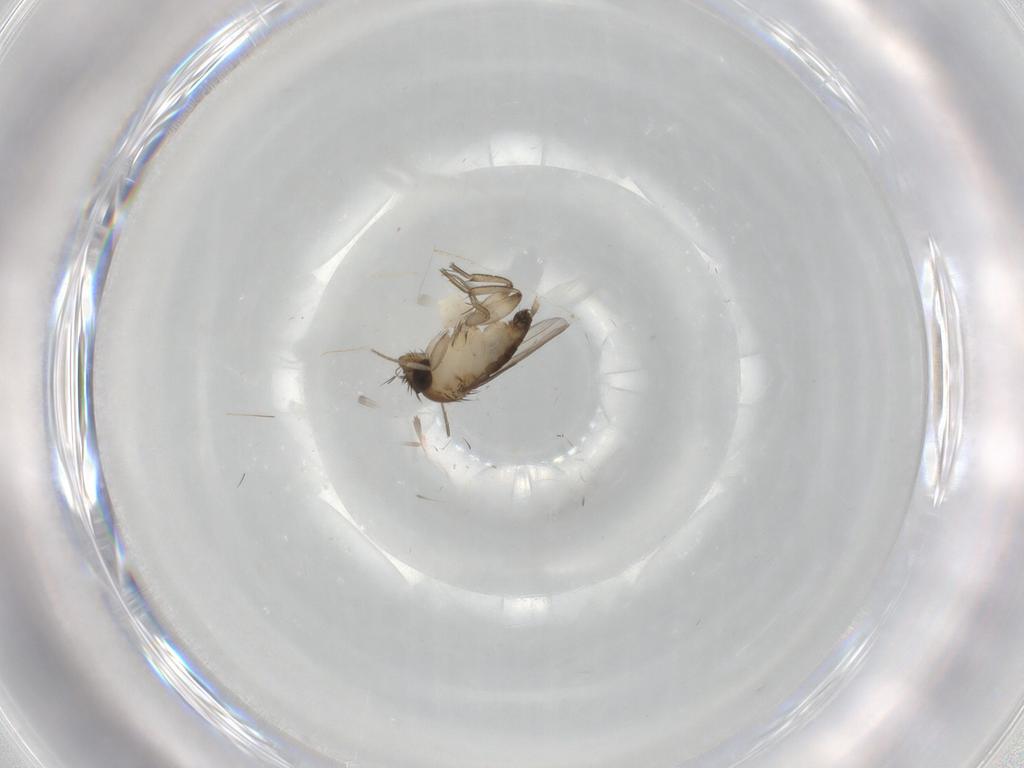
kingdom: Animalia
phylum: Arthropoda
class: Insecta
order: Diptera
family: Phoridae
